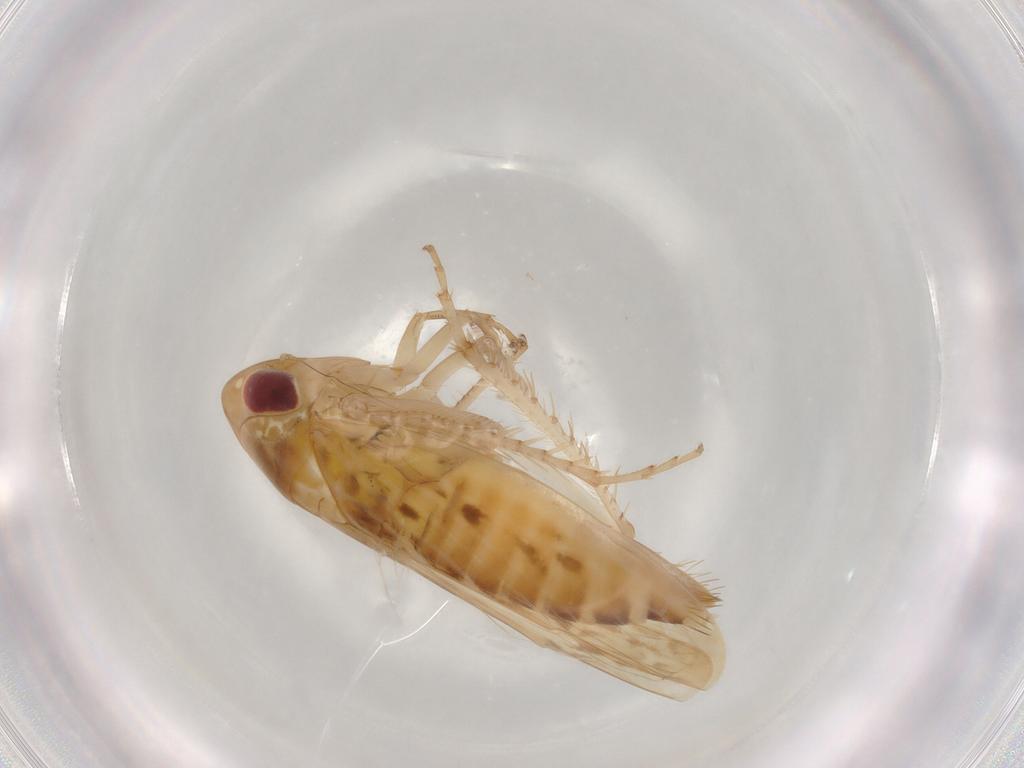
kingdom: Animalia
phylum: Arthropoda
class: Insecta
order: Hemiptera
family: Cicadellidae
